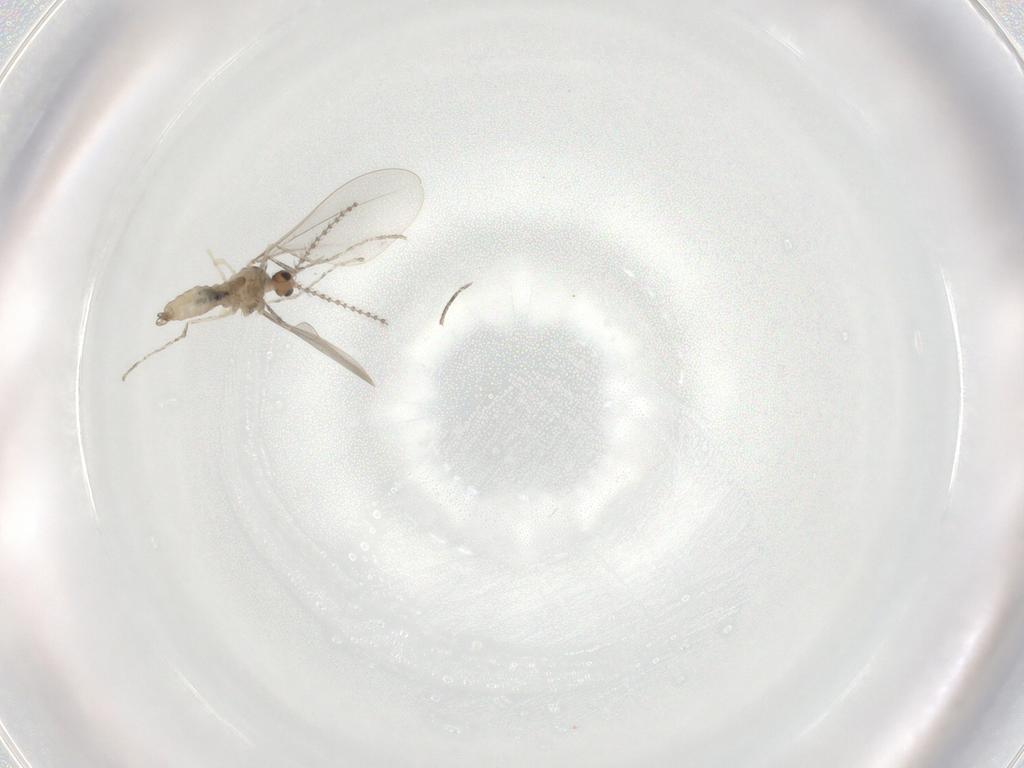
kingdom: Animalia
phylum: Arthropoda
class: Insecta
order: Diptera
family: Cecidomyiidae
